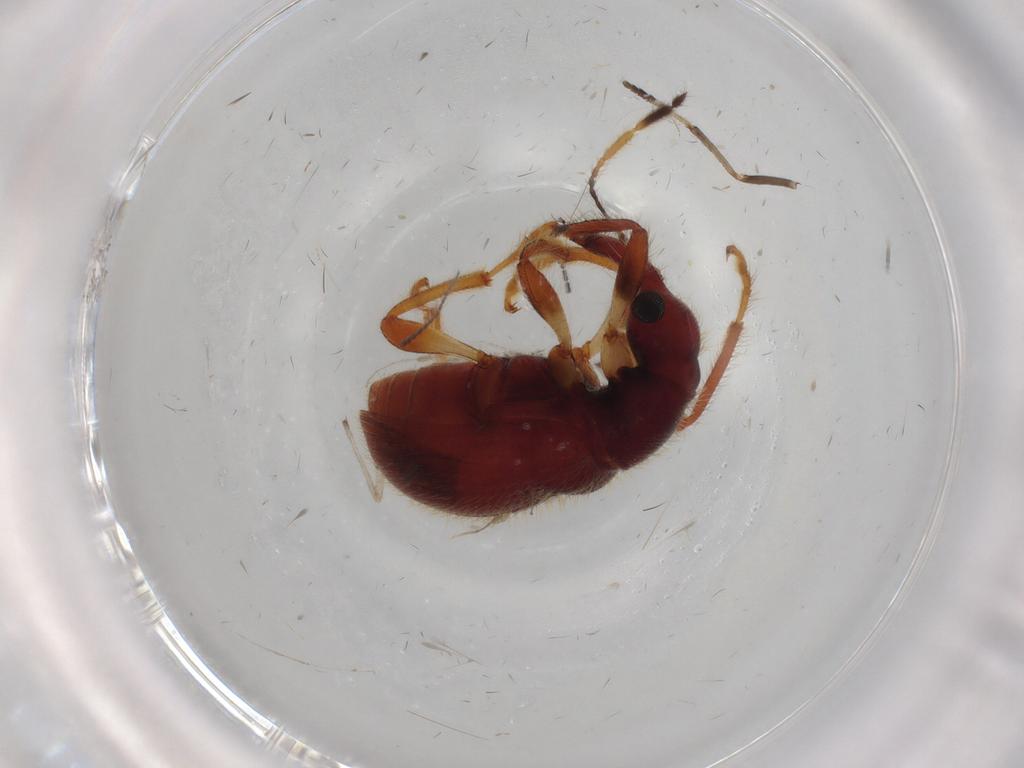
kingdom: Animalia
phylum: Arthropoda
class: Insecta
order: Coleoptera
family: Attelabidae
